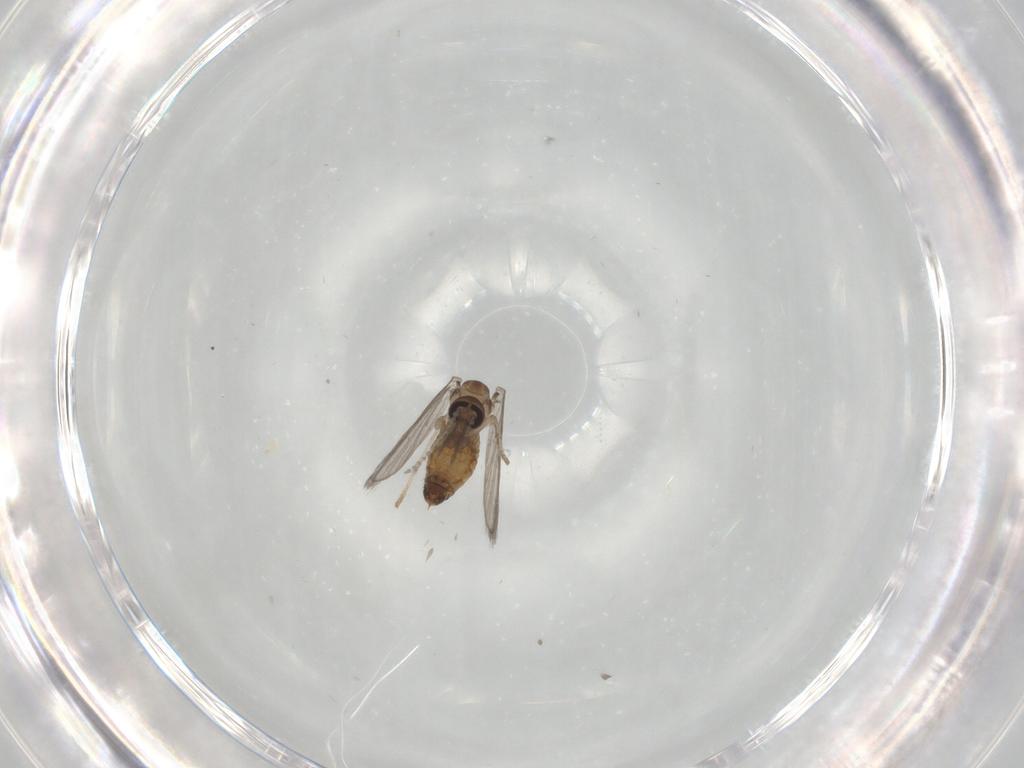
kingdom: Animalia
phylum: Arthropoda
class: Insecta
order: Diptera
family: Psychodidae
